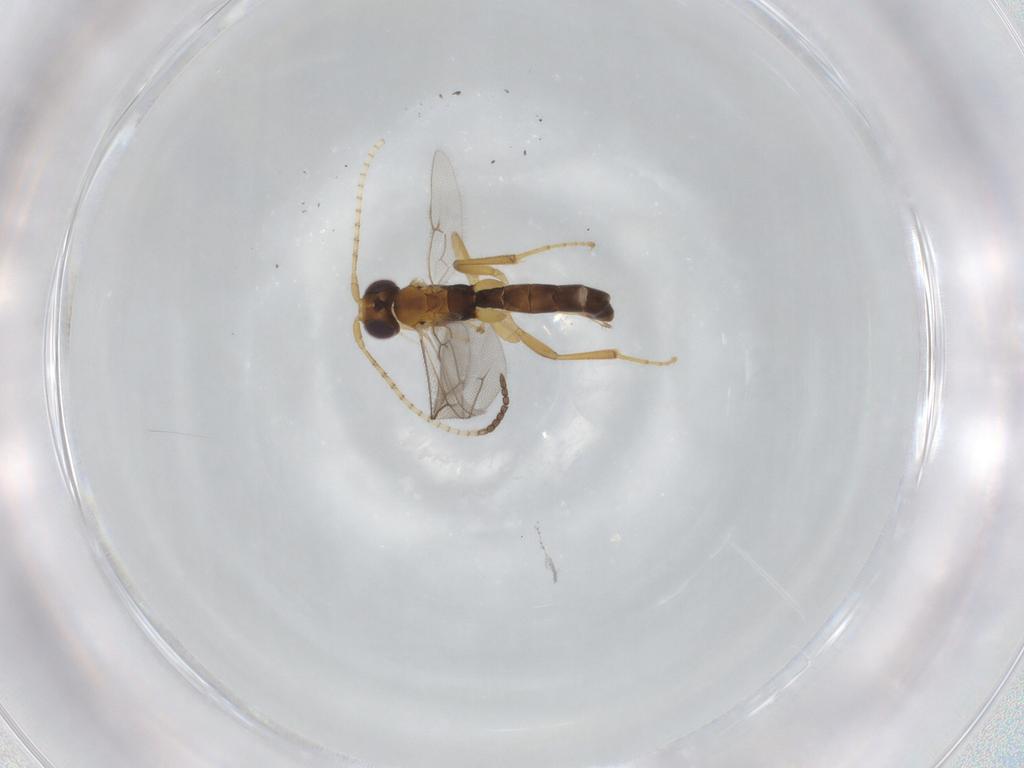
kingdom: Animalia
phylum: Arthropoda
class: Insecta
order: Hymenoptera
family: Ichneumonidae
